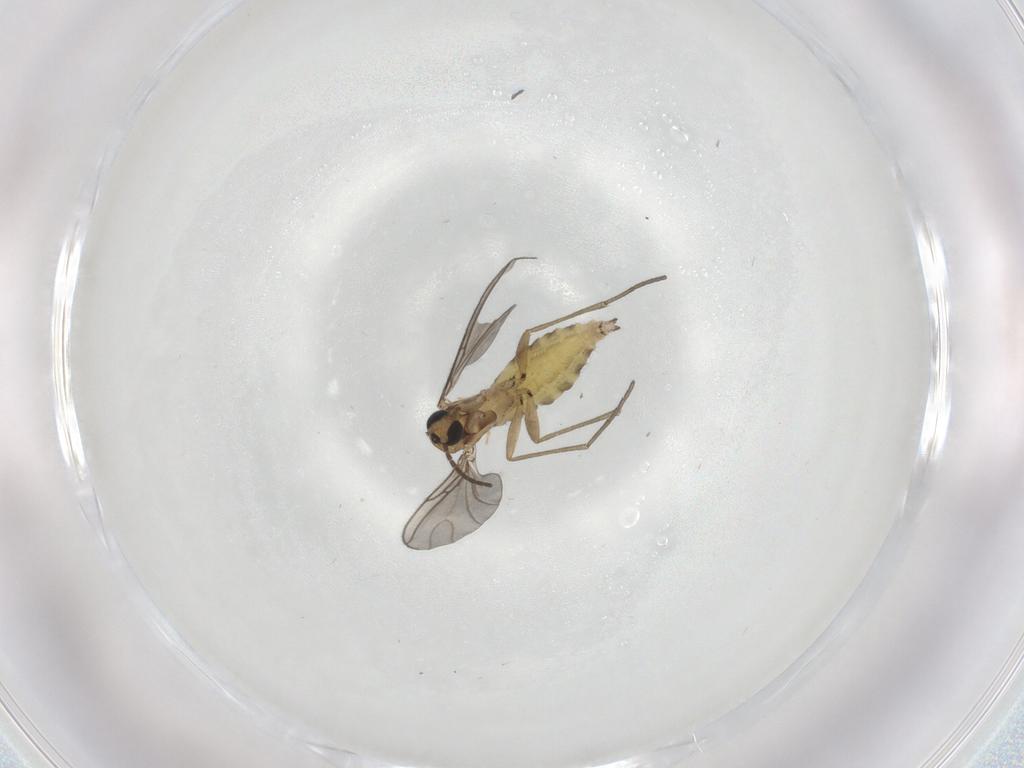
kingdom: Animalia
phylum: Arthropoda
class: Insecta
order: Diptera
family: Sciaridae
